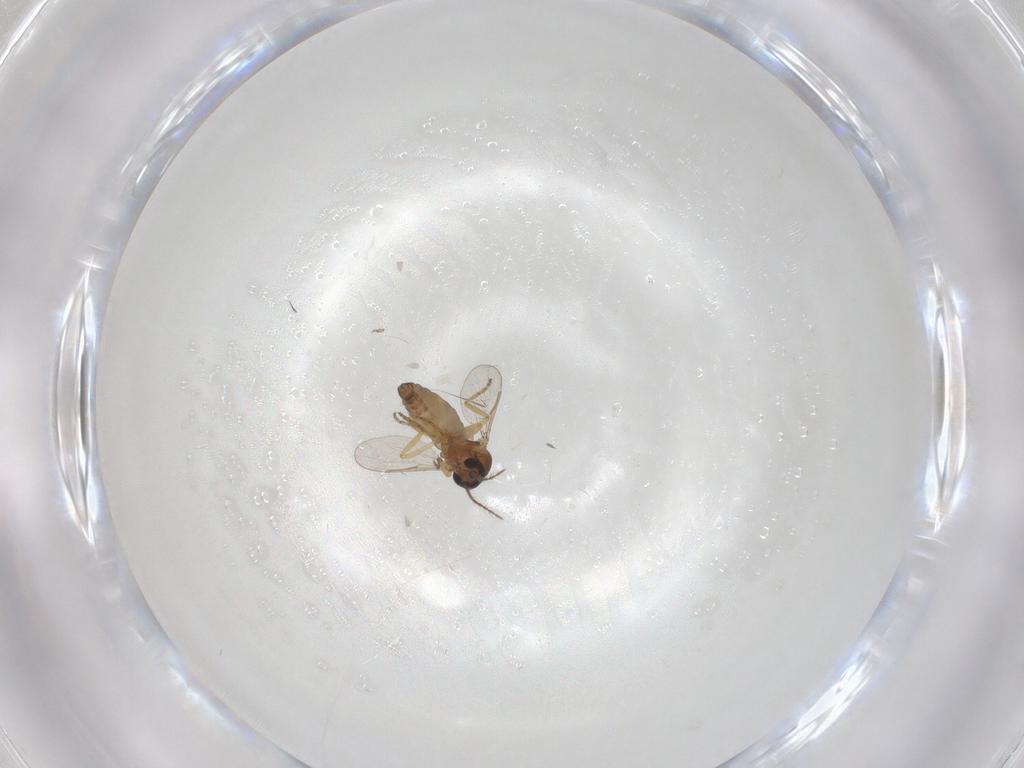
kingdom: Animalia
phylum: Arthropoda
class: Insecta
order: Diptera
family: Ceratopogonidae
